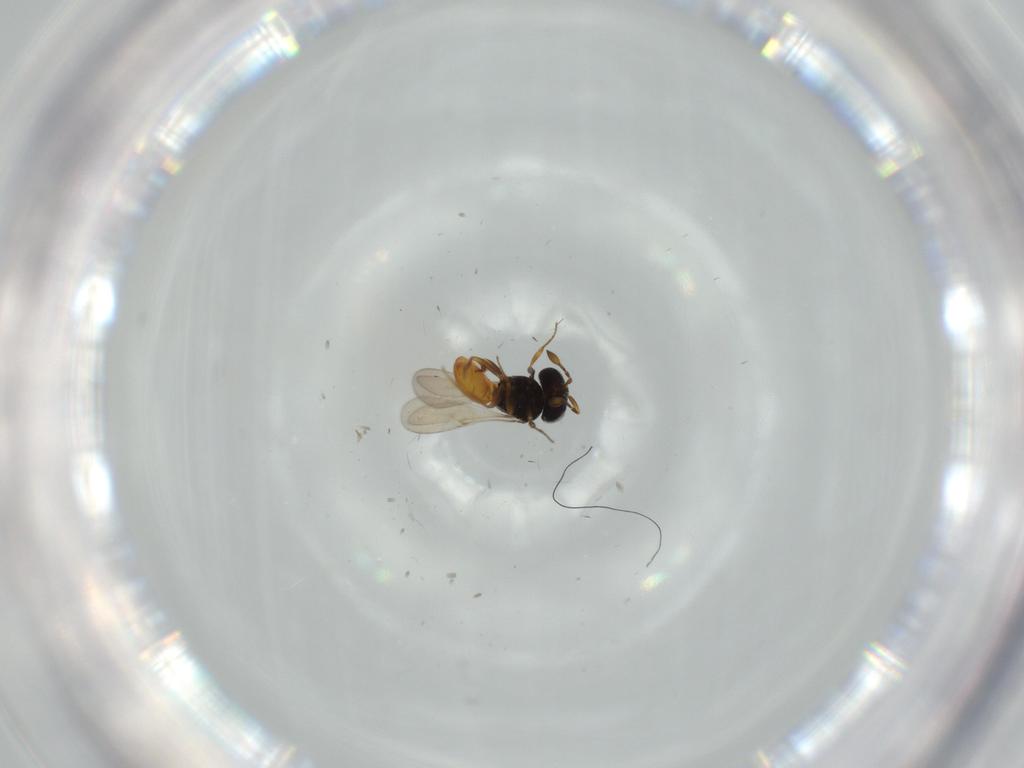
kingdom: Animalia
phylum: Arthropoda
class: Insecta
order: Hymenoptera
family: Scelionidae
